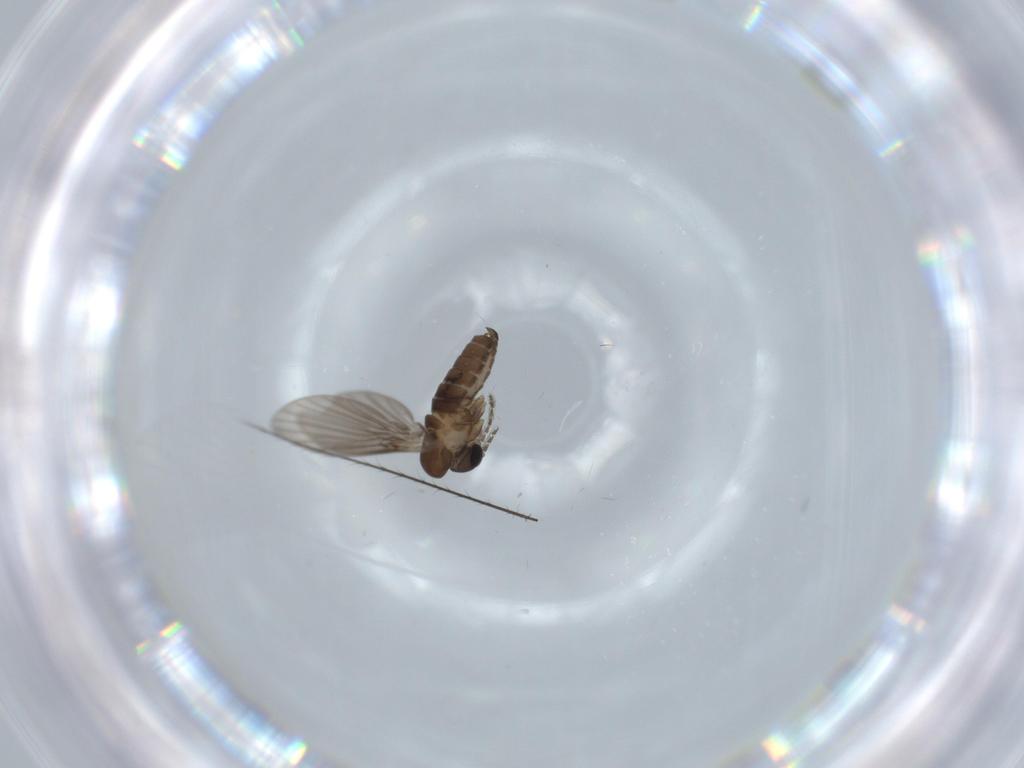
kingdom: Animalia
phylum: Arthropoda
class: Insecta
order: Diptera
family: Psychodidae
